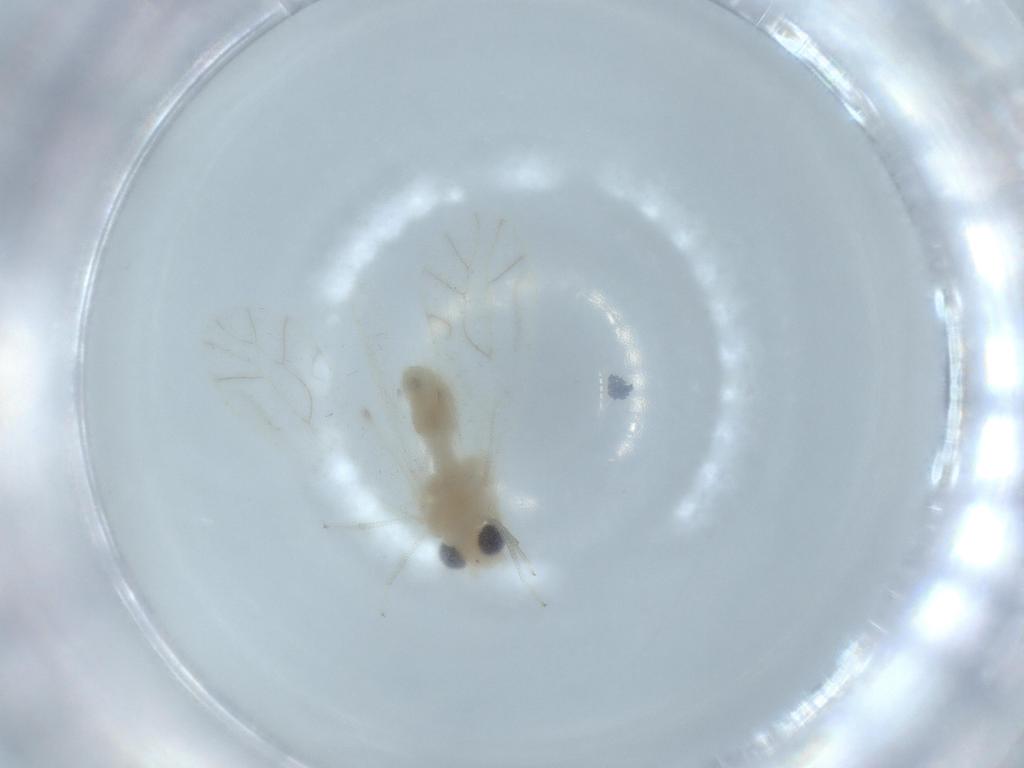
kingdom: Animalia
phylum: Arthropoda
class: Insecta
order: Psocodea
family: Caeciliusidae
